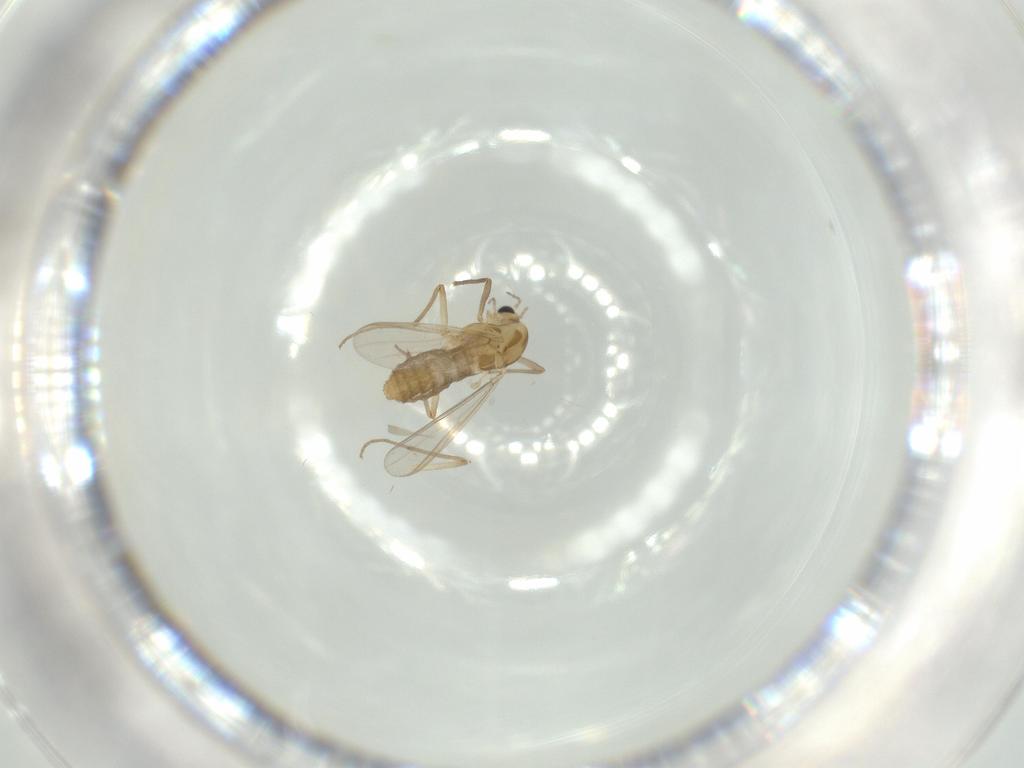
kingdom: Animalia
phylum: Arthropoda
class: Insecta
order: Diptera
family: Chironomidae
